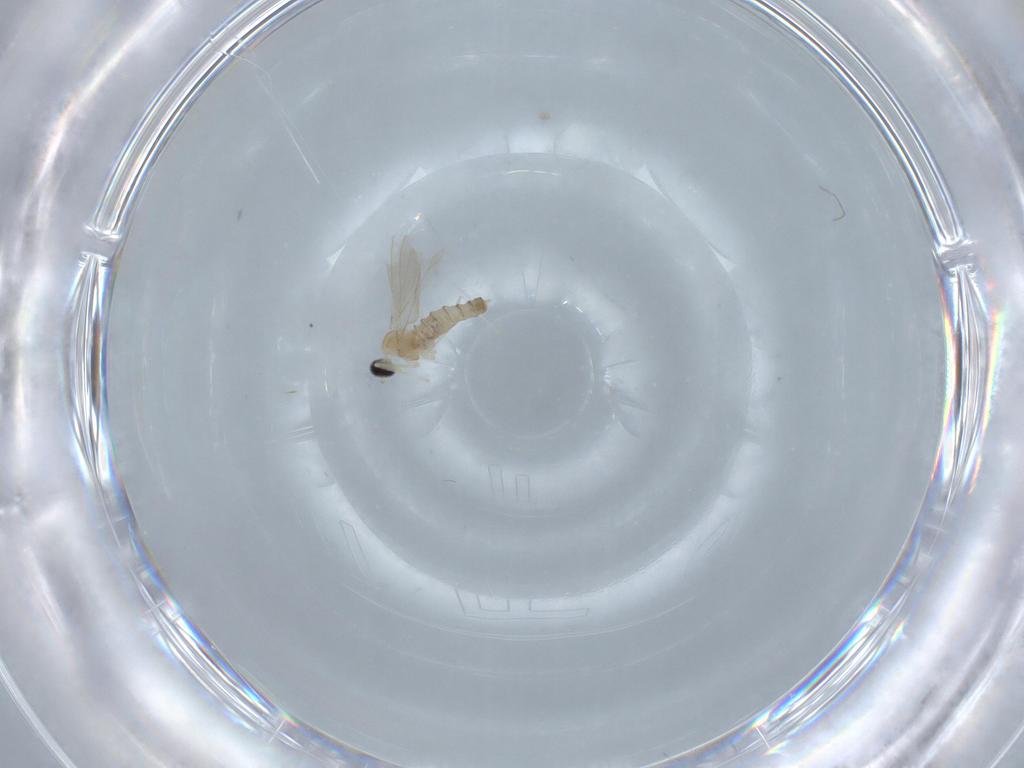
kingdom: Animalia
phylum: Arthropoda
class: Insecta
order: Diptera
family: Cecidomyiidae
